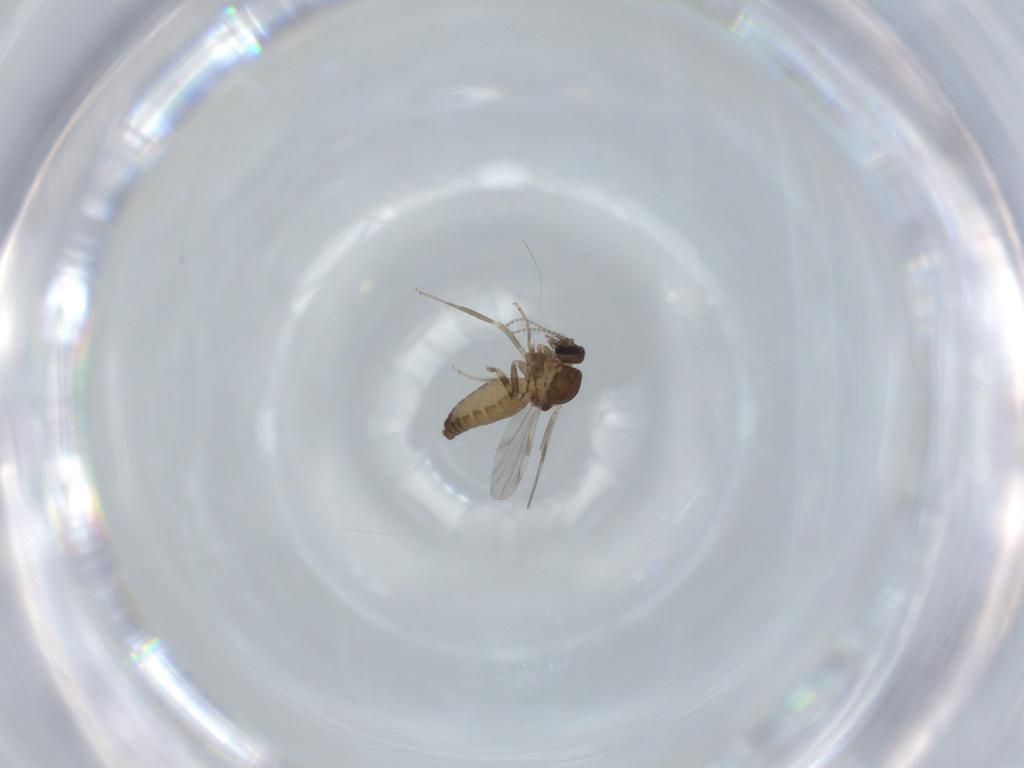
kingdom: Animalia
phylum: Arthropoda
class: Insecta
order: Diptera
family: Ceratopogonidae
